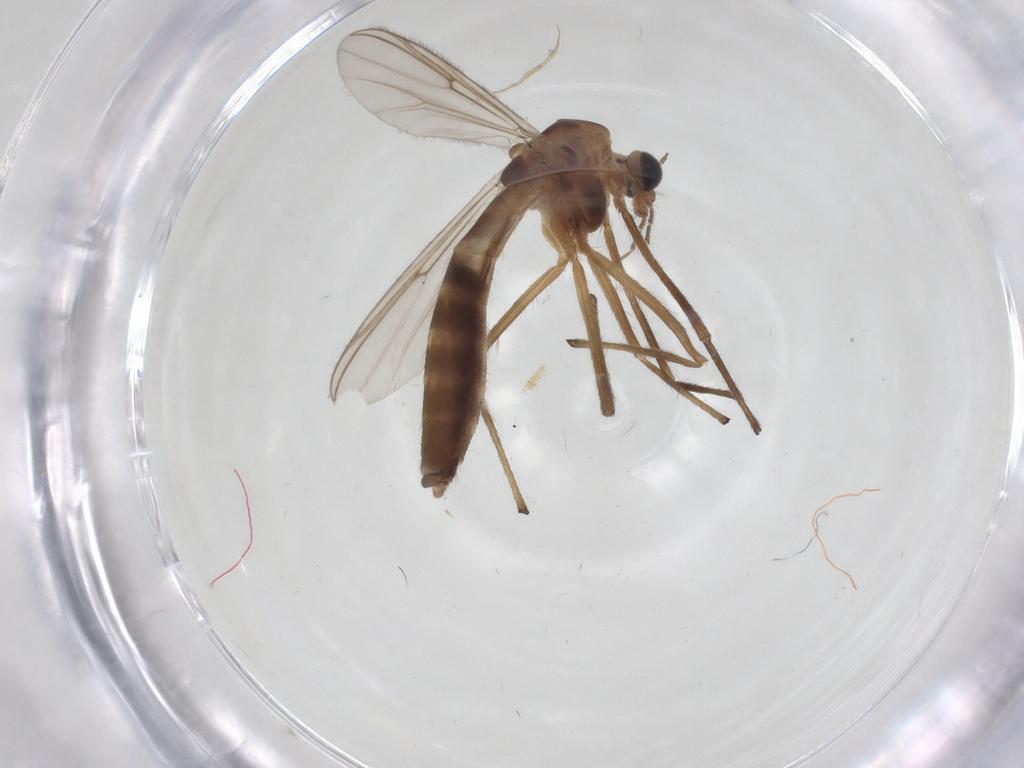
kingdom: Animalia
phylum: Arthropoda
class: Insecta
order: Diptera
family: Chironomidae
